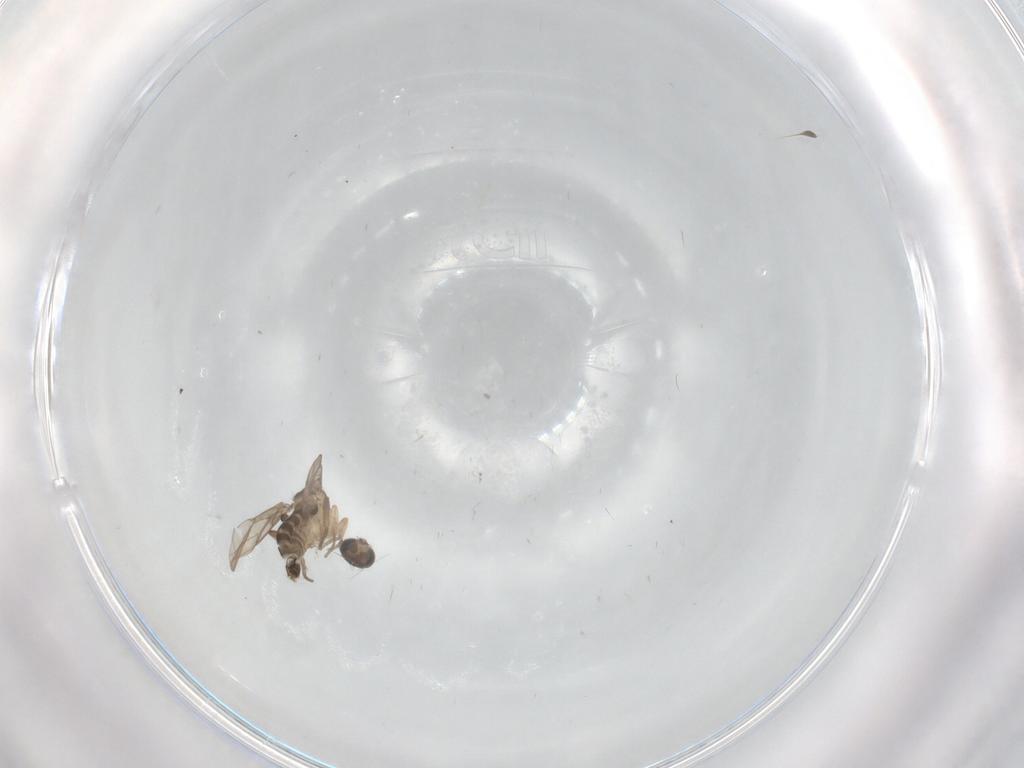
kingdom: Animalia
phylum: Arthropoda
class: Insecta
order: Diptera
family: Phoridae
